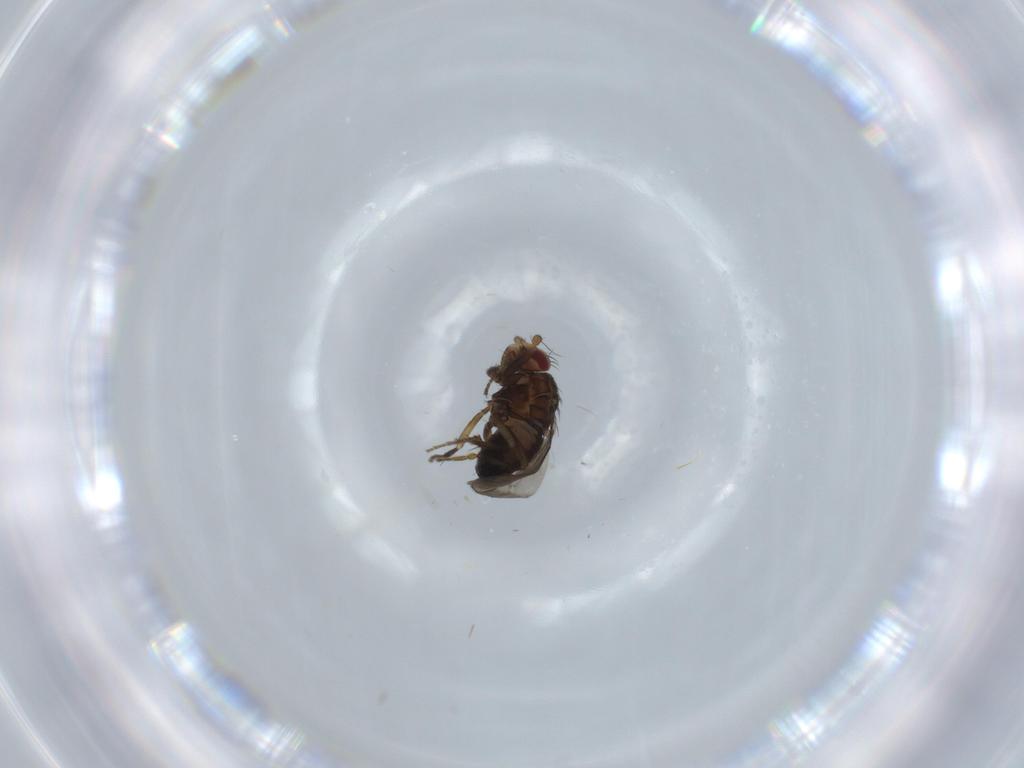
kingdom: Animalia
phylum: Arthropoda
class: Insecta
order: Diptera
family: Sphaeroceridae
